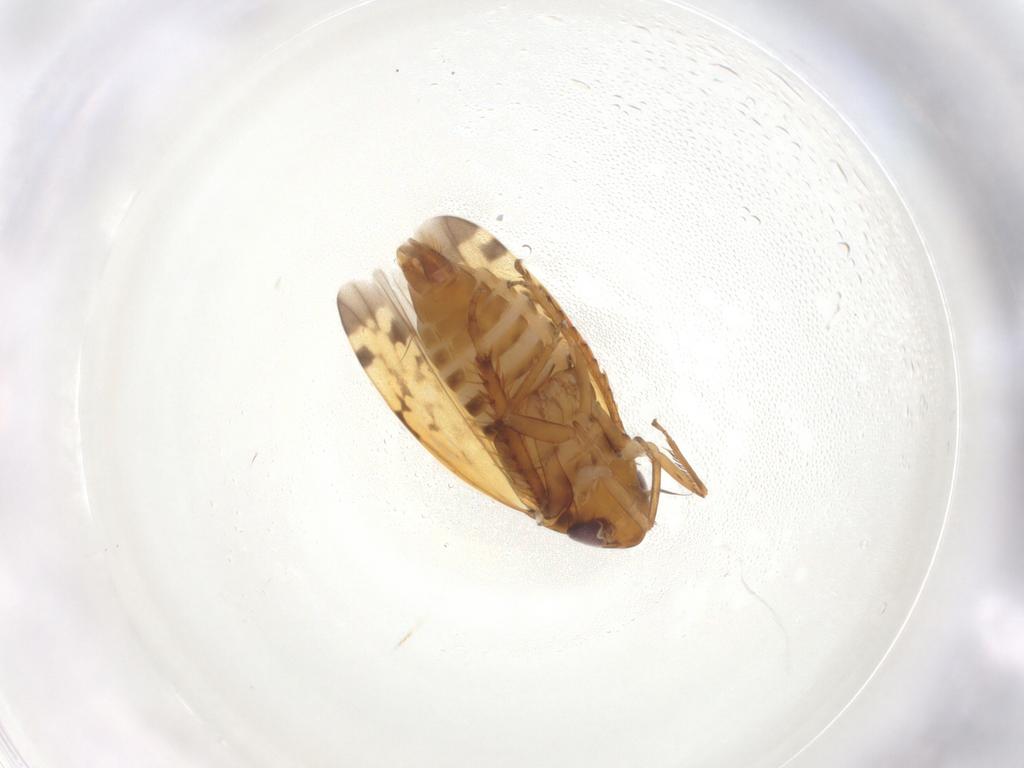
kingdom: Animalia
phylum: Arthropoda
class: Insecta
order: Hemiptera
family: Cicadellidae
